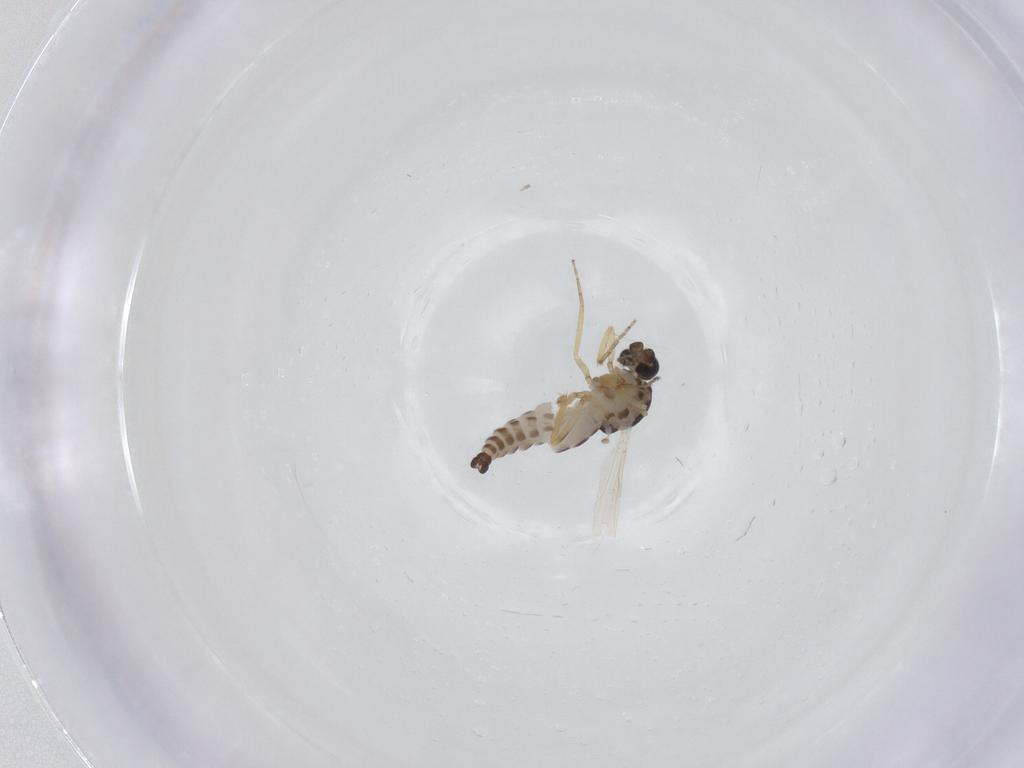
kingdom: Animalia
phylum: Arthropoda
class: Insecta
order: Diptera
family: Ceratopogonidae
